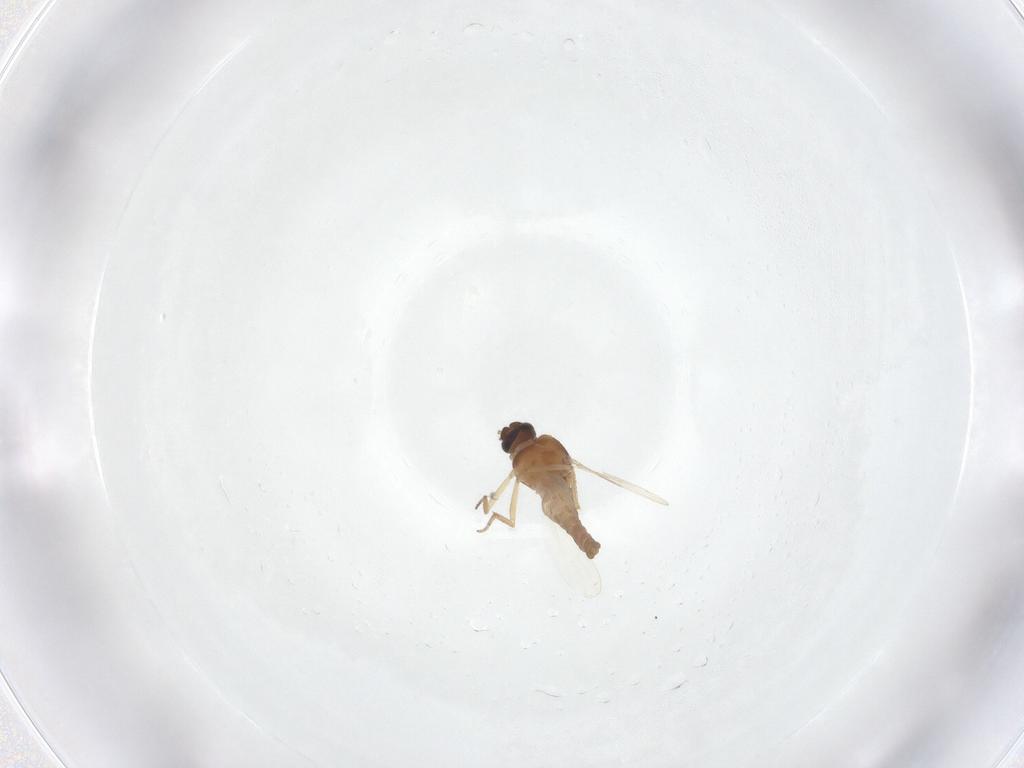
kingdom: Animalia
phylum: Arthropoda
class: Insecta
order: Diptera
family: Ceratopogonidae
